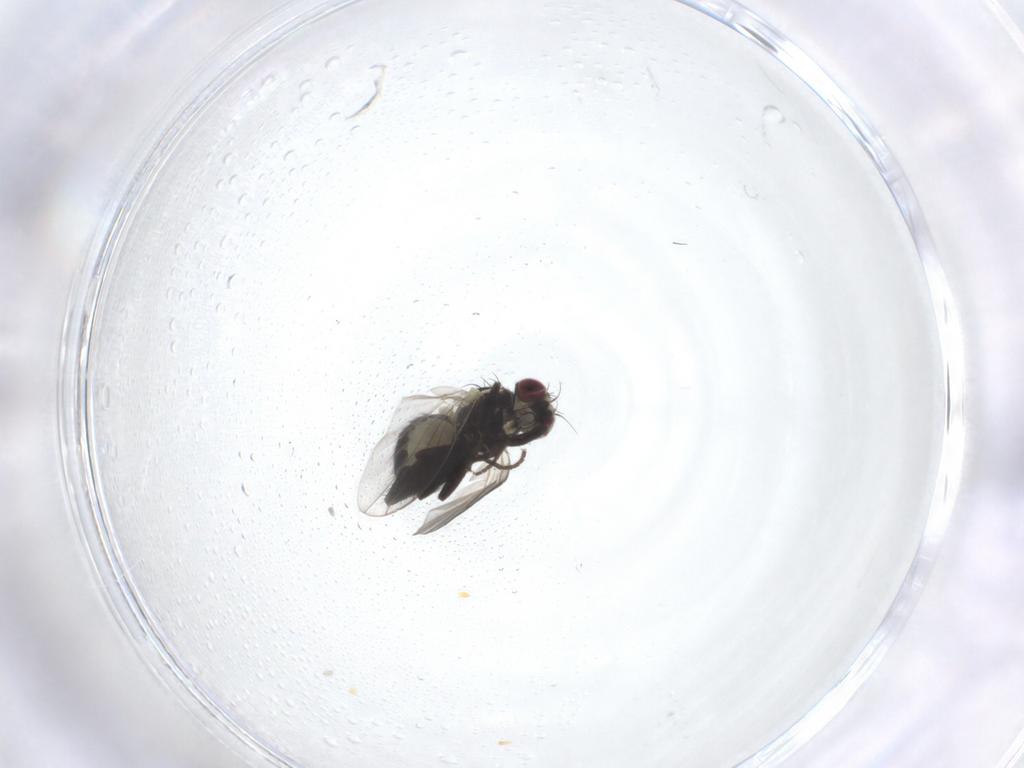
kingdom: Animalia
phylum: Arthropoda
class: Insecta
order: Diptera
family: Agromyzidae
